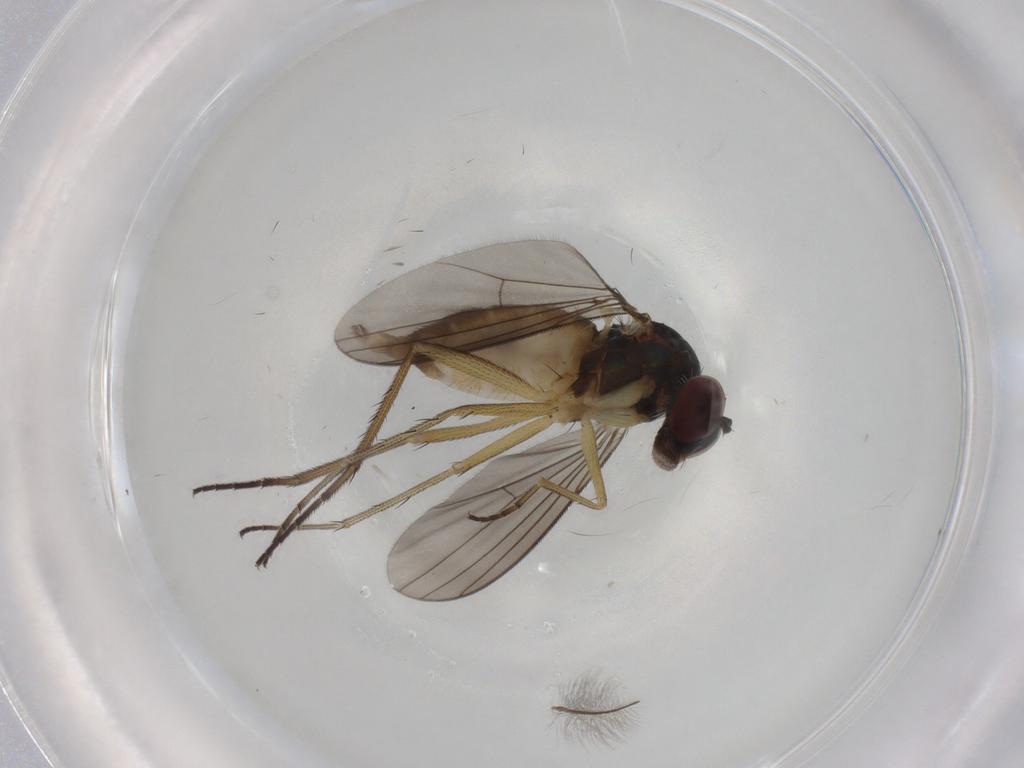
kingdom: Animalia
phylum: Arthropoda
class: Insecta
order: Diptera
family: Dolichopodidae
